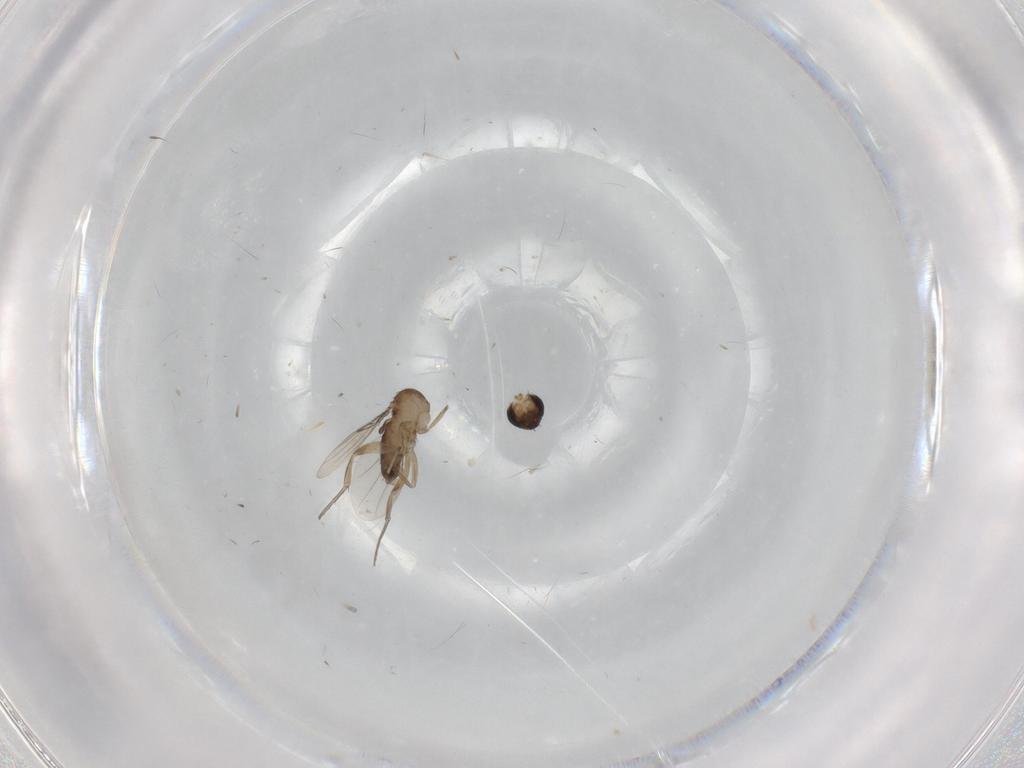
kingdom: Animalia
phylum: Arthropoda
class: Insecta
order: Diptera
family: Phoridae
